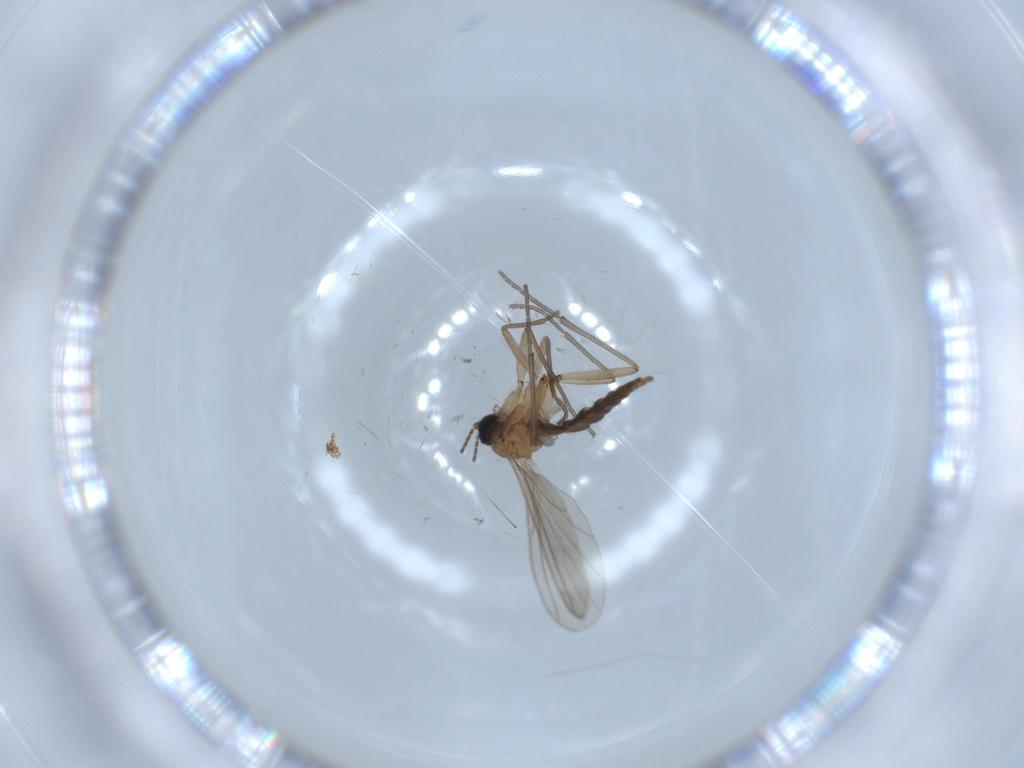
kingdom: Animalia
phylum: Arthropoda
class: Insecta
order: Diptera
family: Sciaridae
